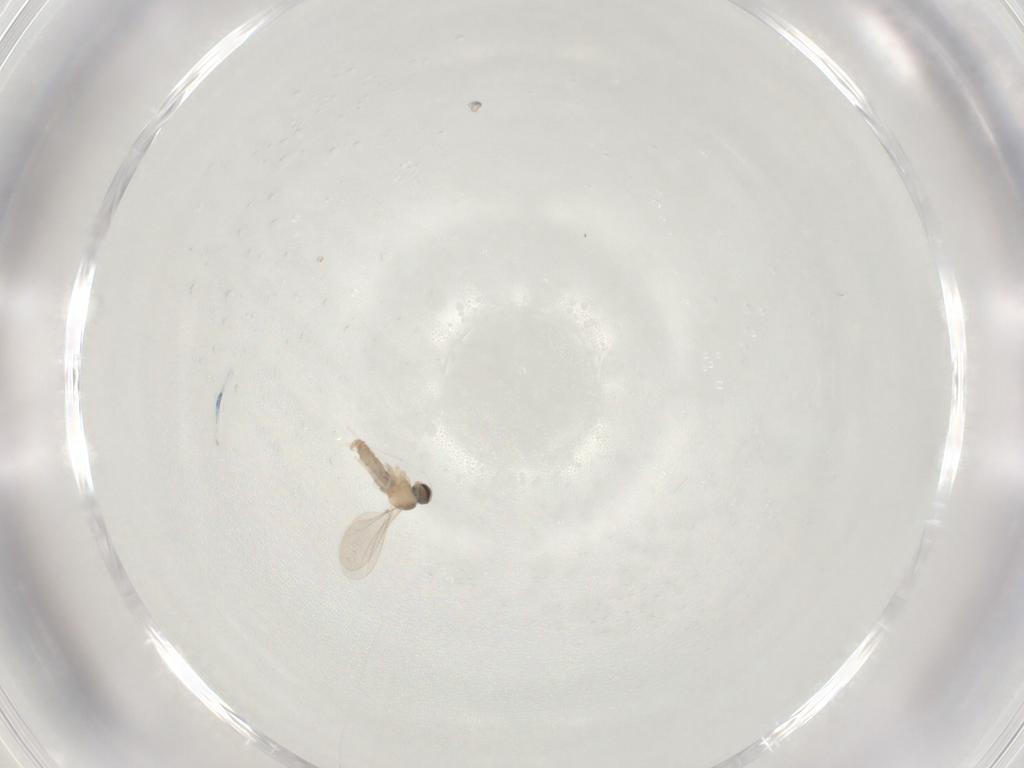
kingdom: Animalia
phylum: Arthropoda
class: Insecta
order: Diptera
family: Cecidomyiidae
